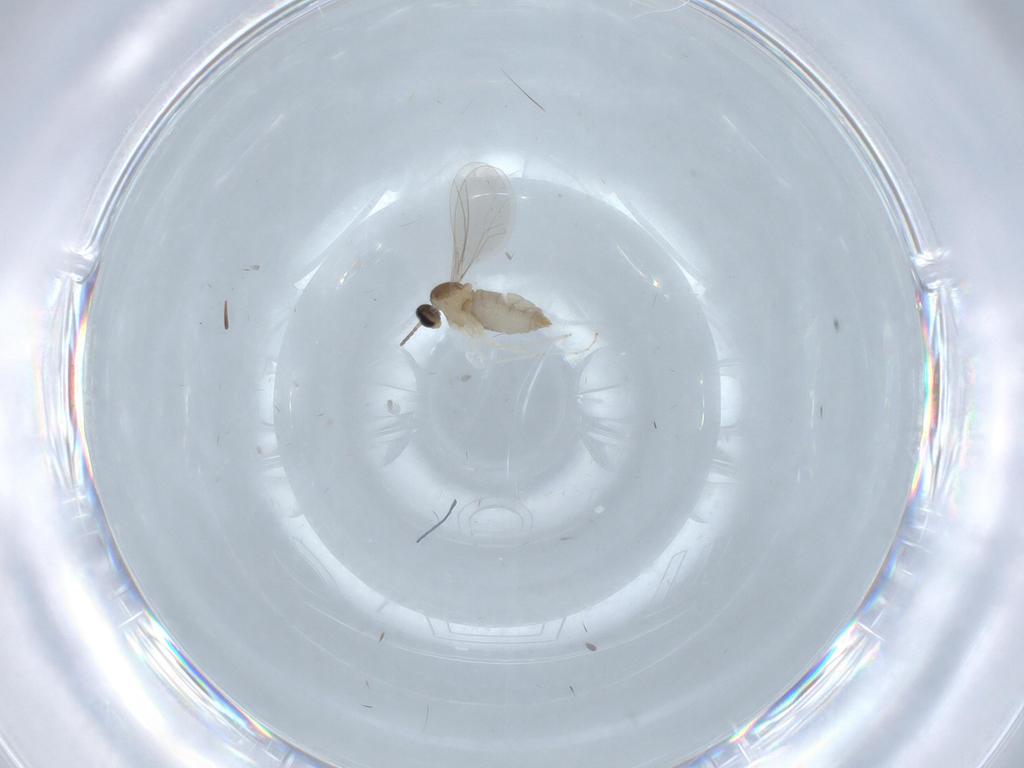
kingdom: Animalia
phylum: Arthropoda
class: Insecta
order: Diptera
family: Cecidomyiidae
